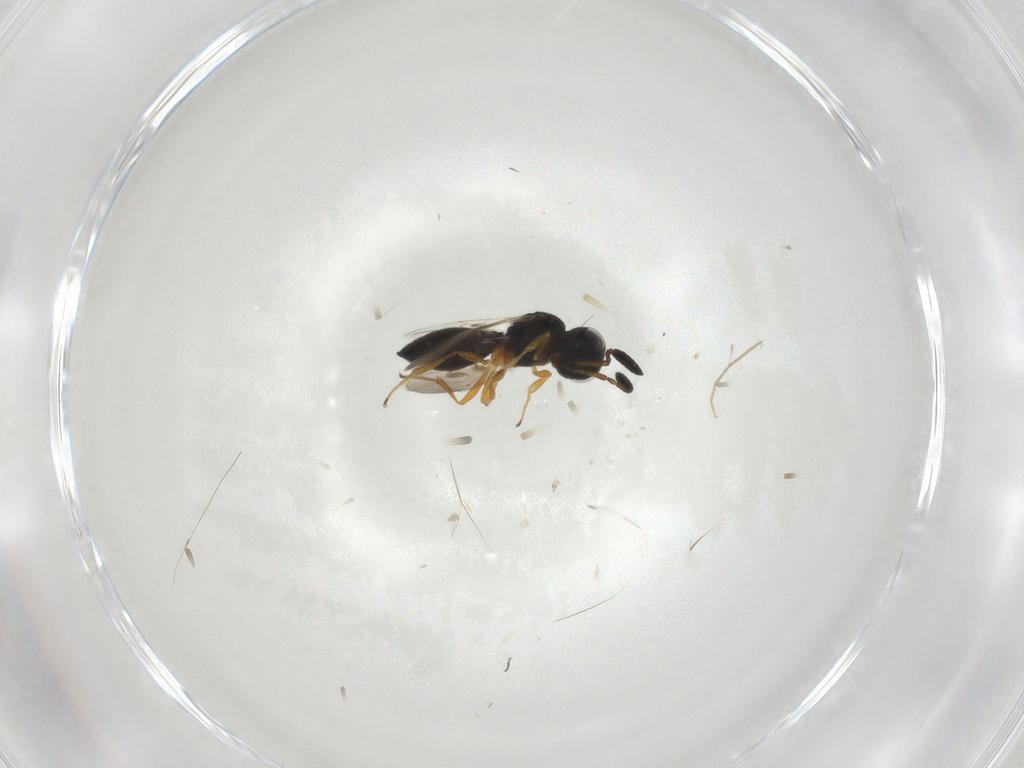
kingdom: Animalia
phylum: Arthropoda
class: Insecta
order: Hymenoptera
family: Scelionidae
